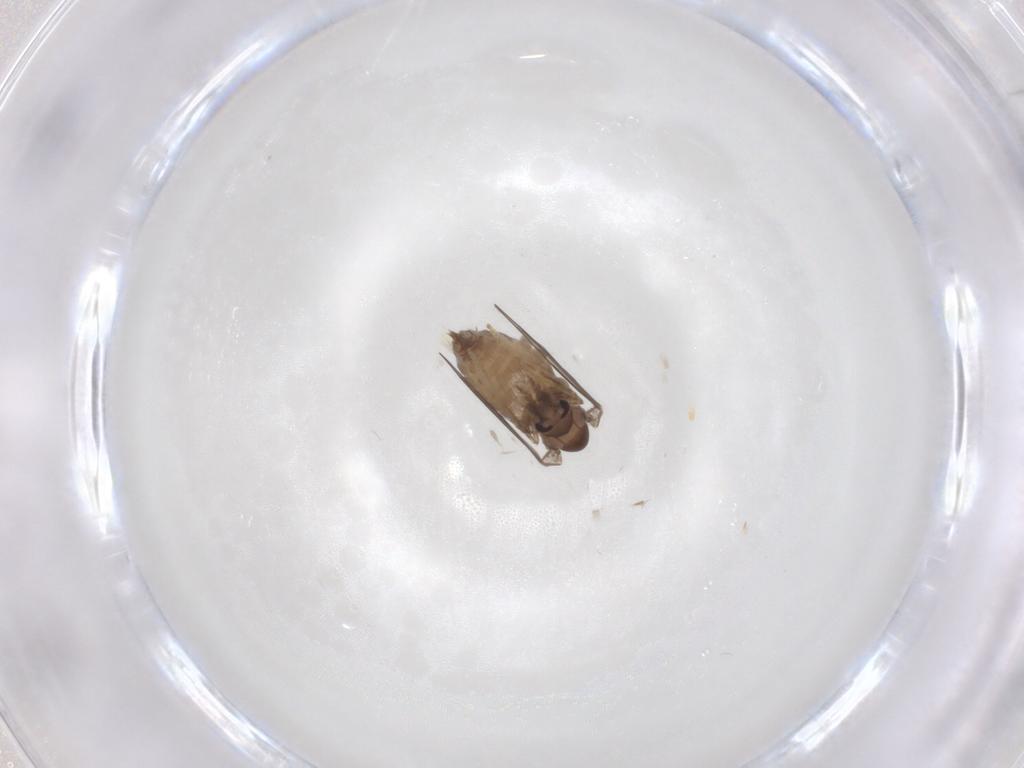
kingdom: Animalia
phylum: Arthropoda
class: Insecta
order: Diptera
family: Psychodidae
